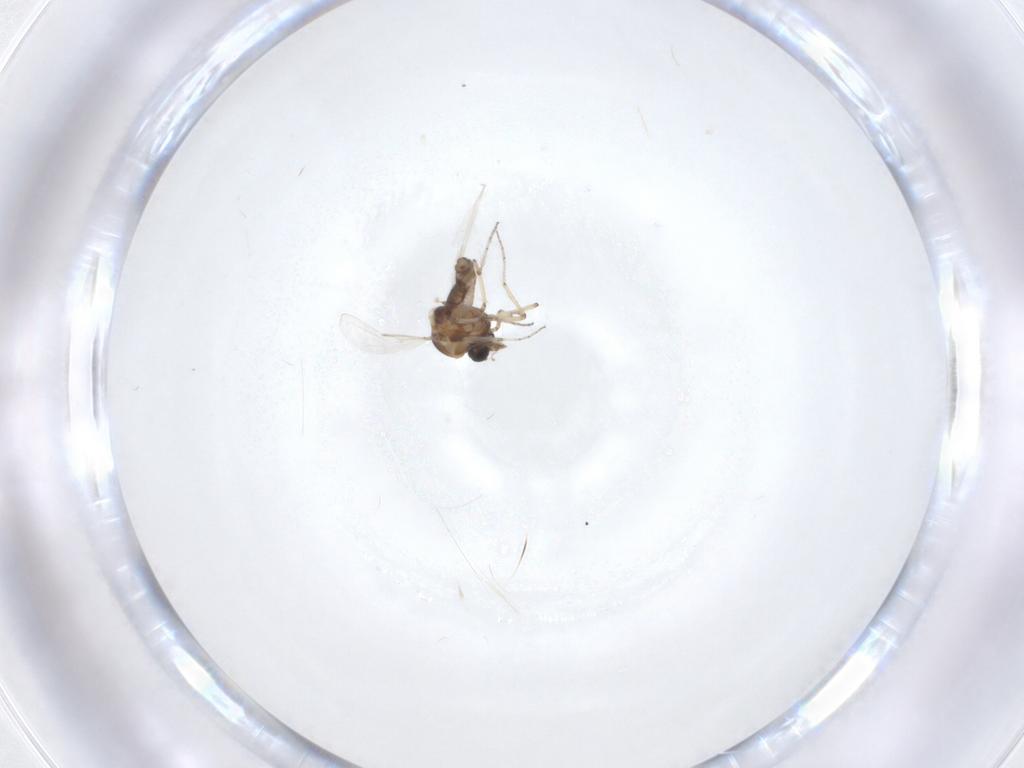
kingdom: Animalia
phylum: Arthropoda
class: Insecta
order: Diptera
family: Ceratopogonidae
